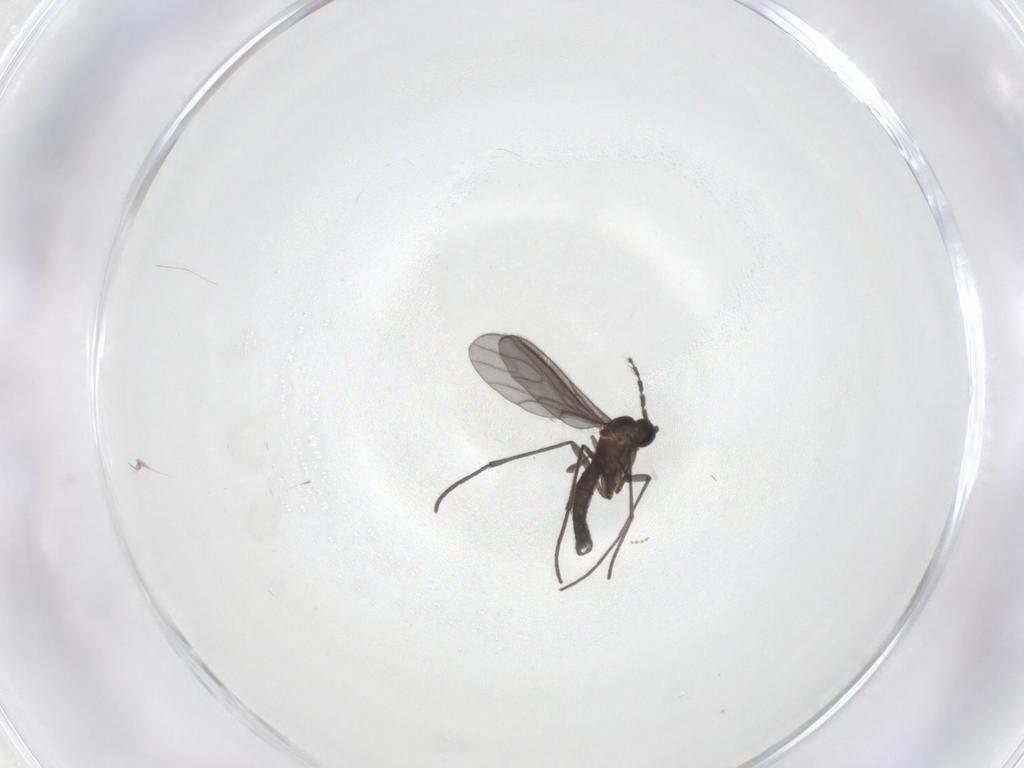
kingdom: Animalia
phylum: Arthropoda
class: Insecta
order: Diptera
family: Sciaridae
